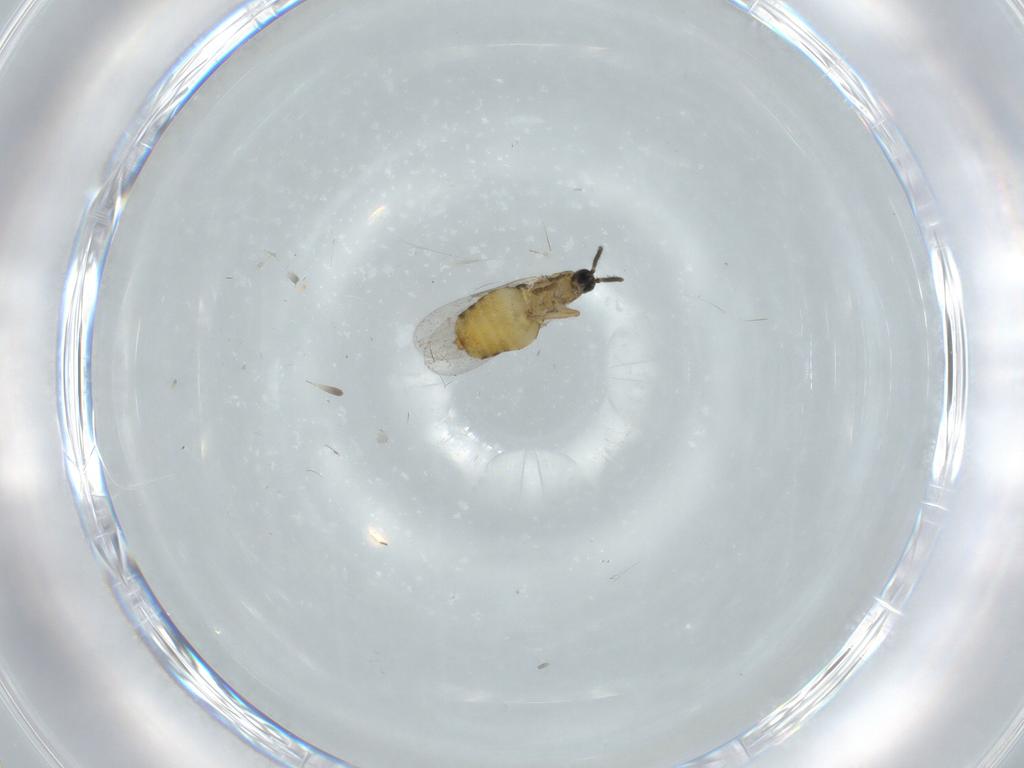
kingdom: Animalia
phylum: Arthropoda
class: Insecta
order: Diptera
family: Scatopsidae
